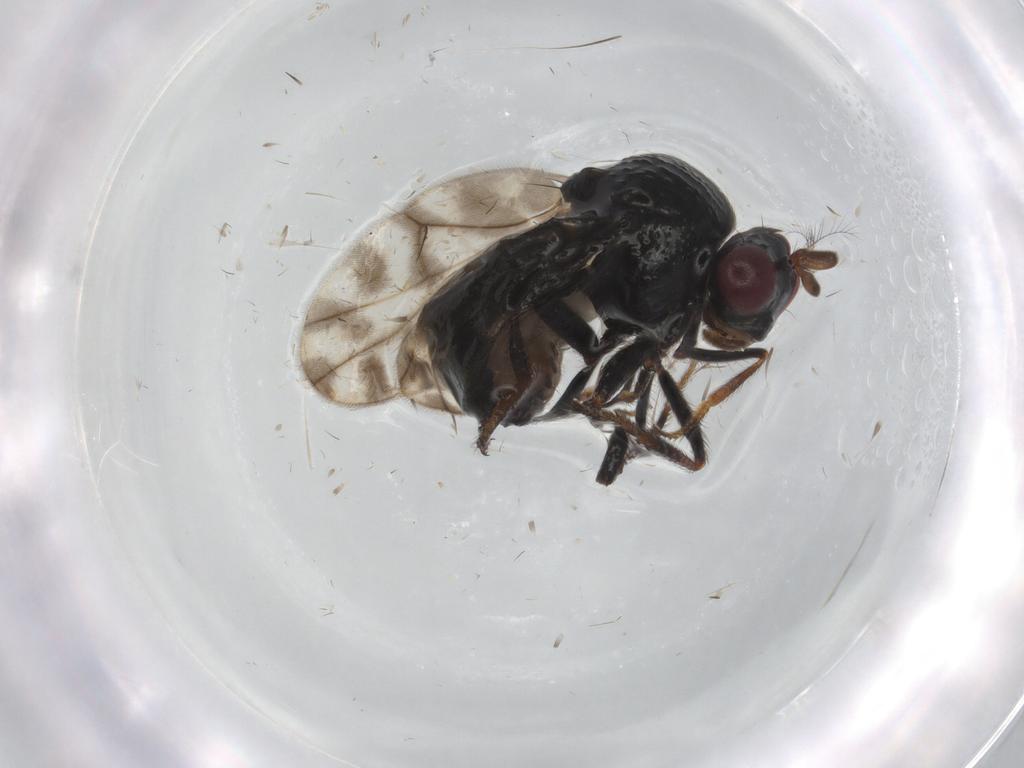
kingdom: Animalia
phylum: Arthropoda
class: Insecta
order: Diptera
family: Ephydridae
